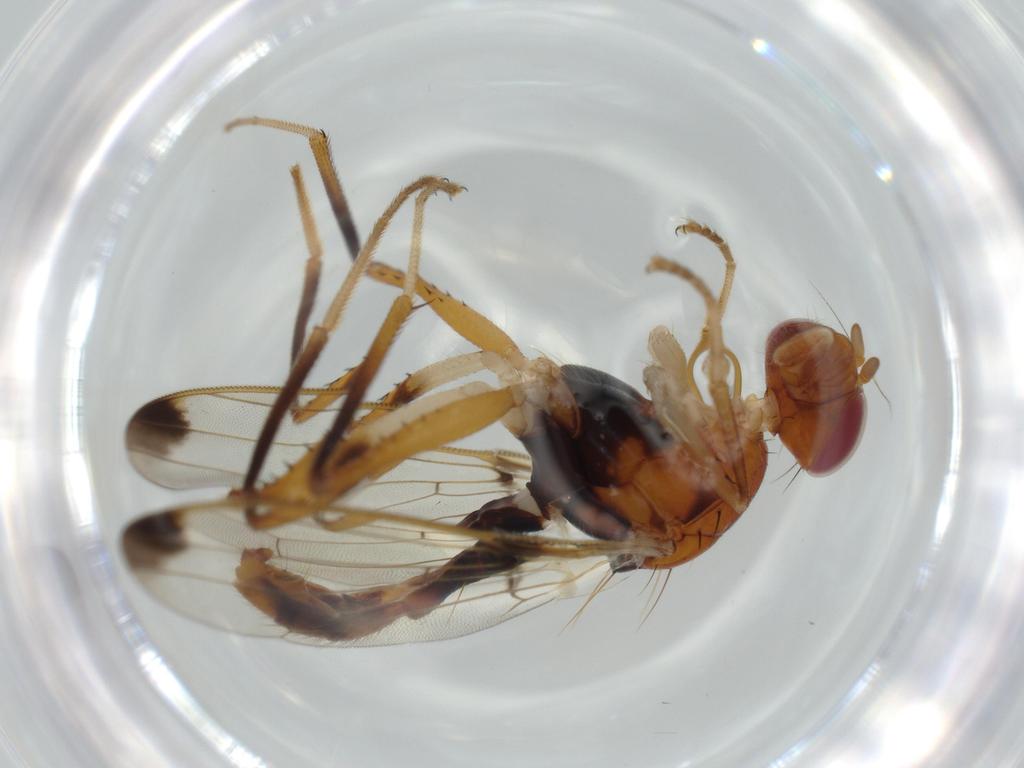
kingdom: Animalia
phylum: Arthropoda
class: Insecta
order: Diptera
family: Richardiidae
